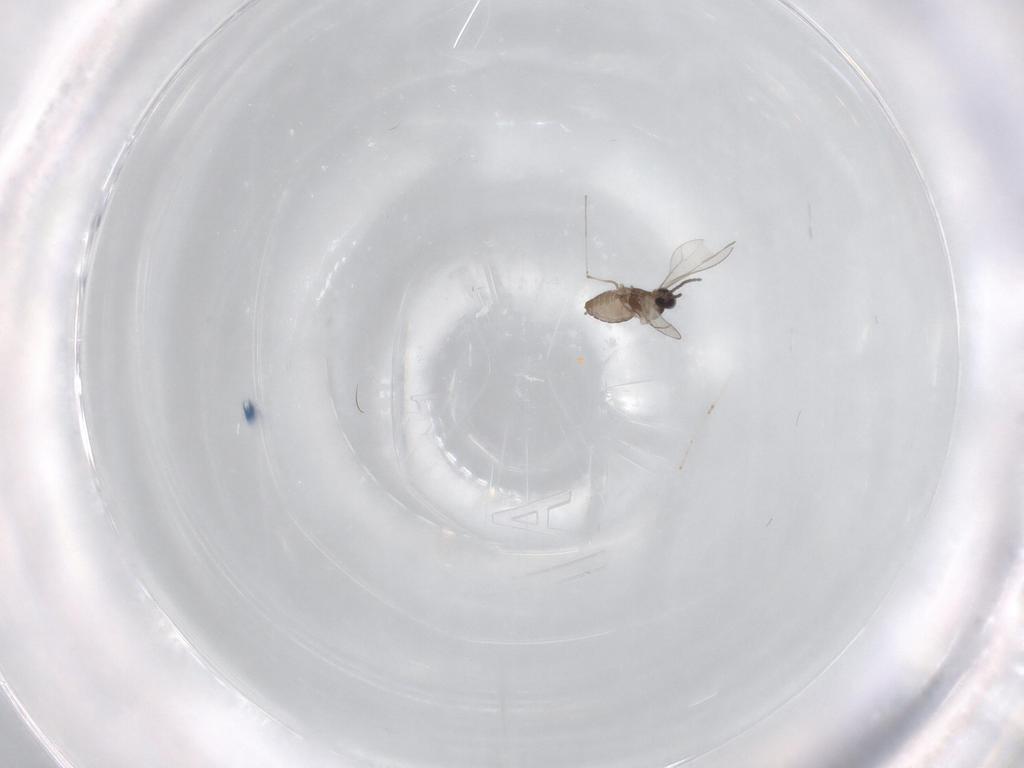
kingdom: Animalia
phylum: Arthropoda
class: Insecta
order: Diptera
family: Cecidomyiidae
